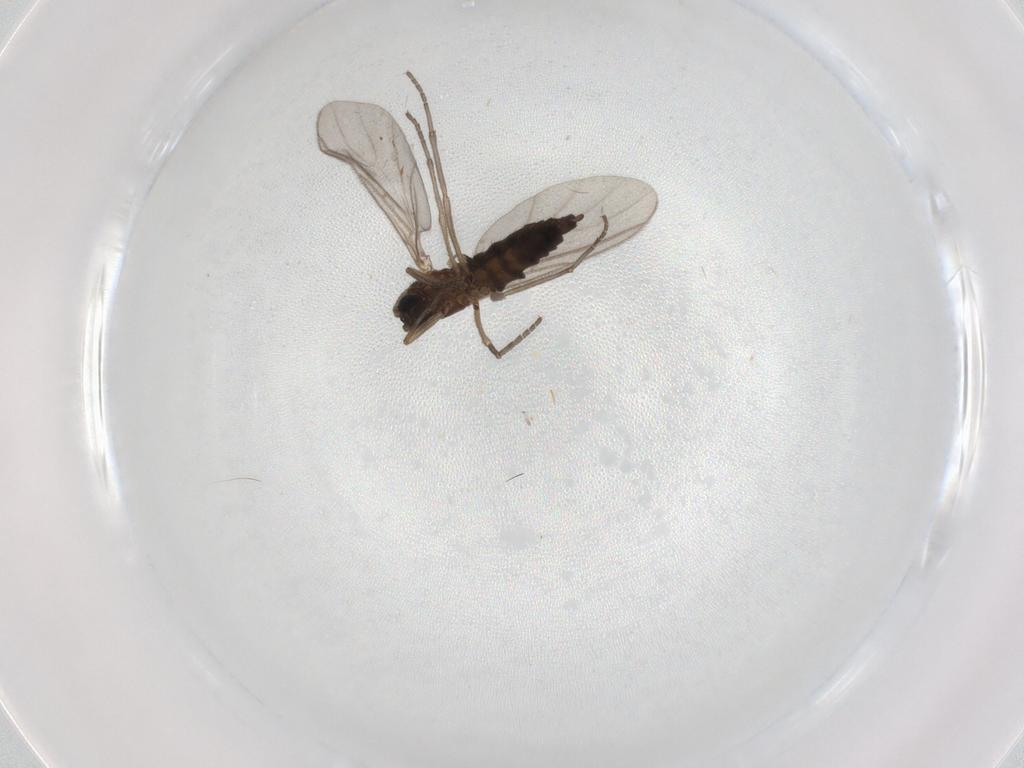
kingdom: Animalia
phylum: Arthropoda
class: Insecta
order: Diptera
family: Sciaridae
